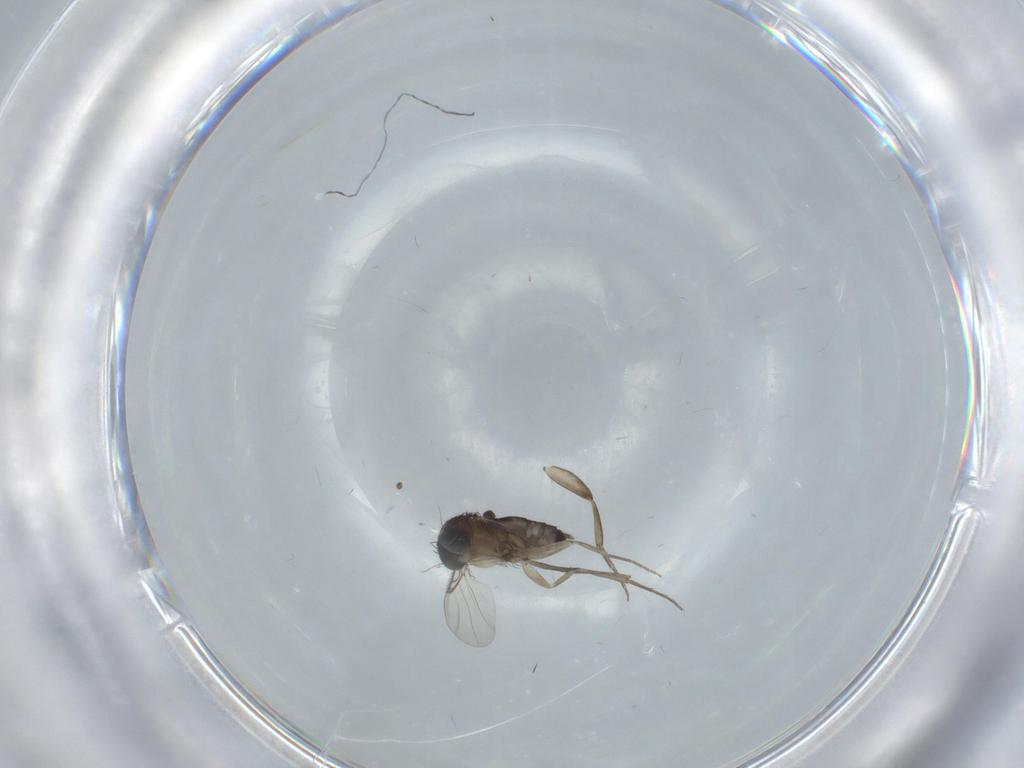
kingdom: Animalia
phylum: Arthropoda
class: Insecta
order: Diptera
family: Phoridae
